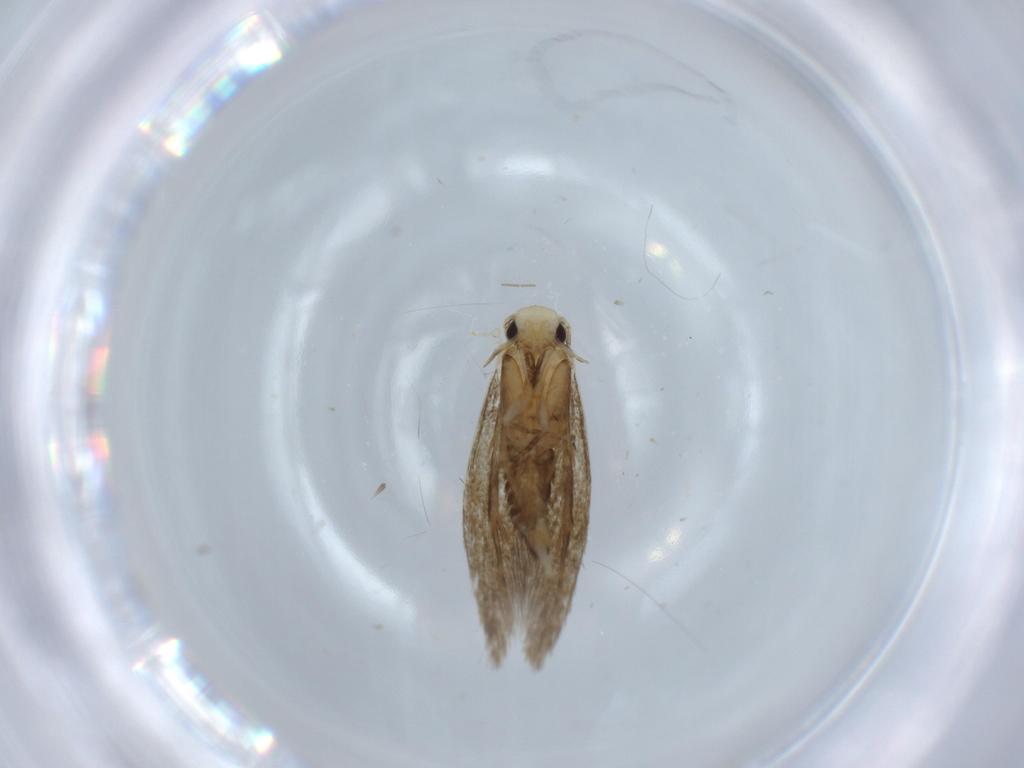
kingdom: Animalia
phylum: Arthropoda
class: Insecta
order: Lepidoptera
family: Tineidae
